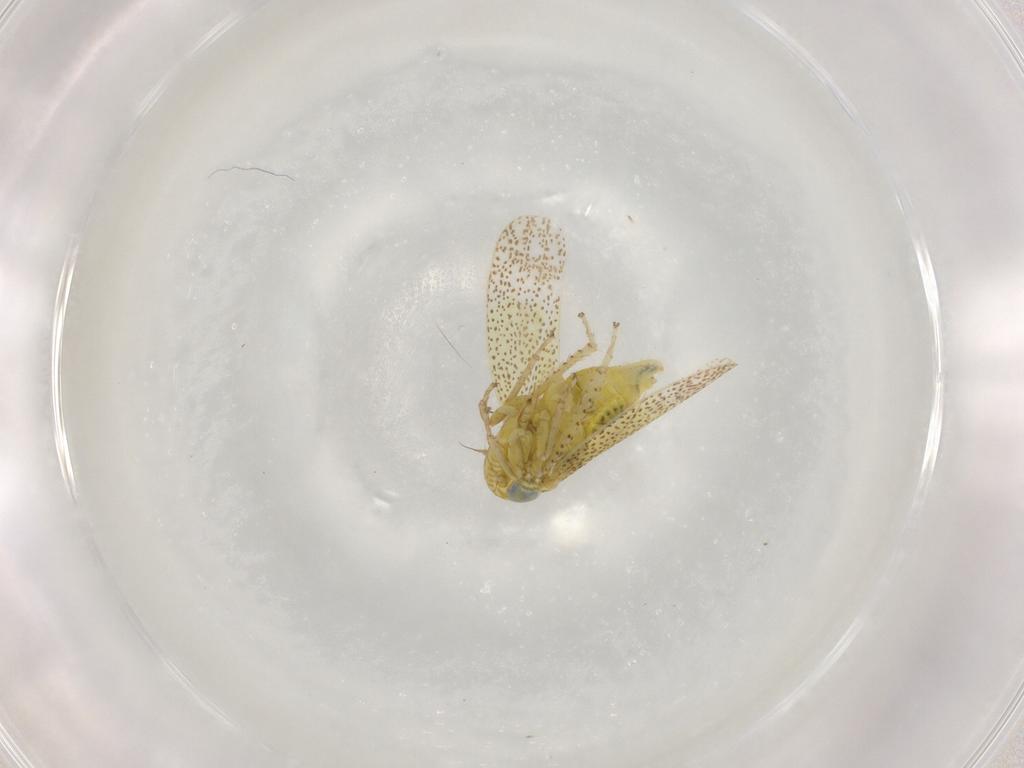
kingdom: Animalia
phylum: Arthropoda
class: Insecta
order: Hemiptera
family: Cicadellidae
